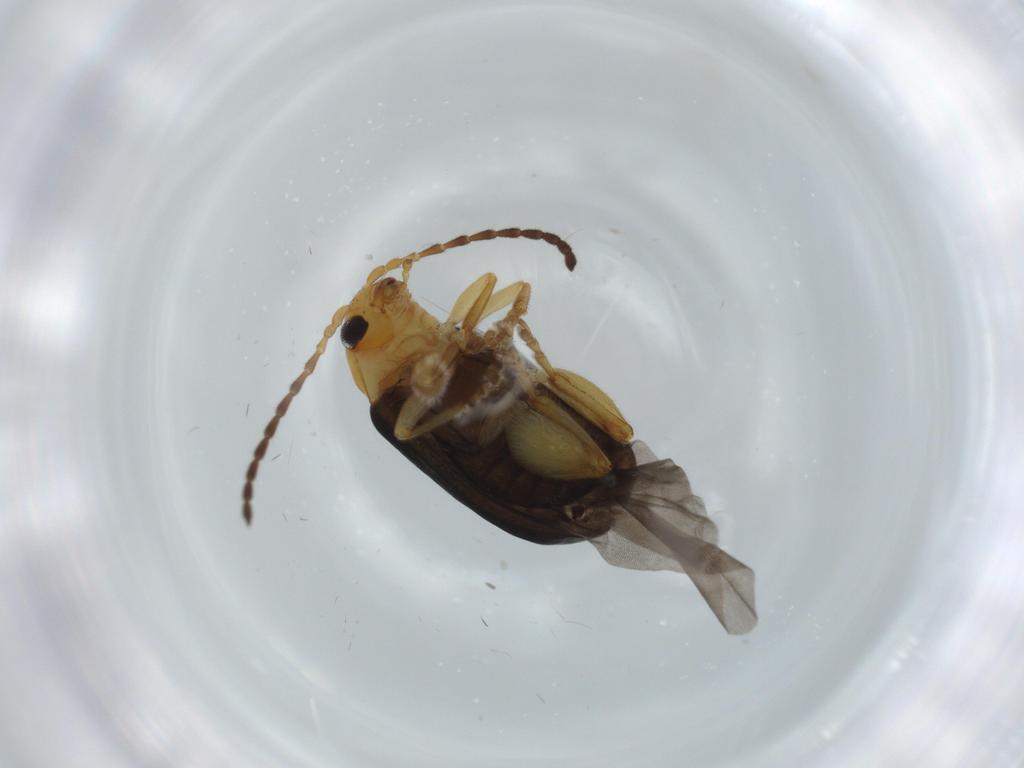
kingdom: Animalia
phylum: Arthropoda
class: Insecta
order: Coleoptera
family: Chrysomelidae
